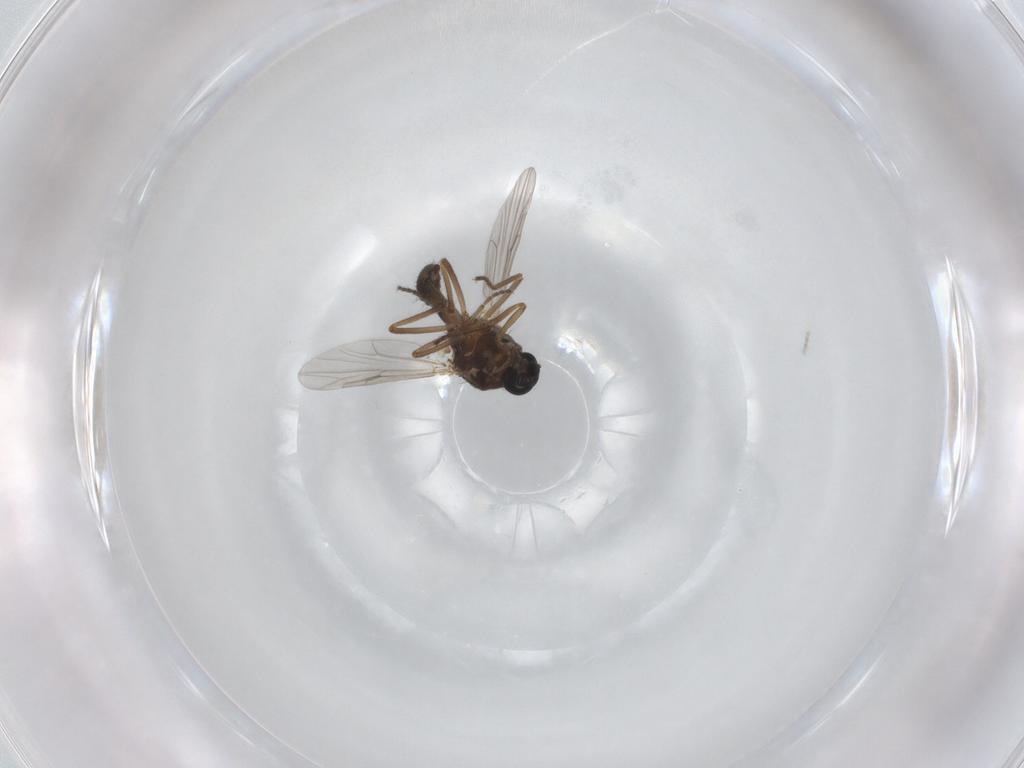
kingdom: Animalia
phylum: Arthropoda
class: Insecta
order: Diptera
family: Ceratopogonidae
